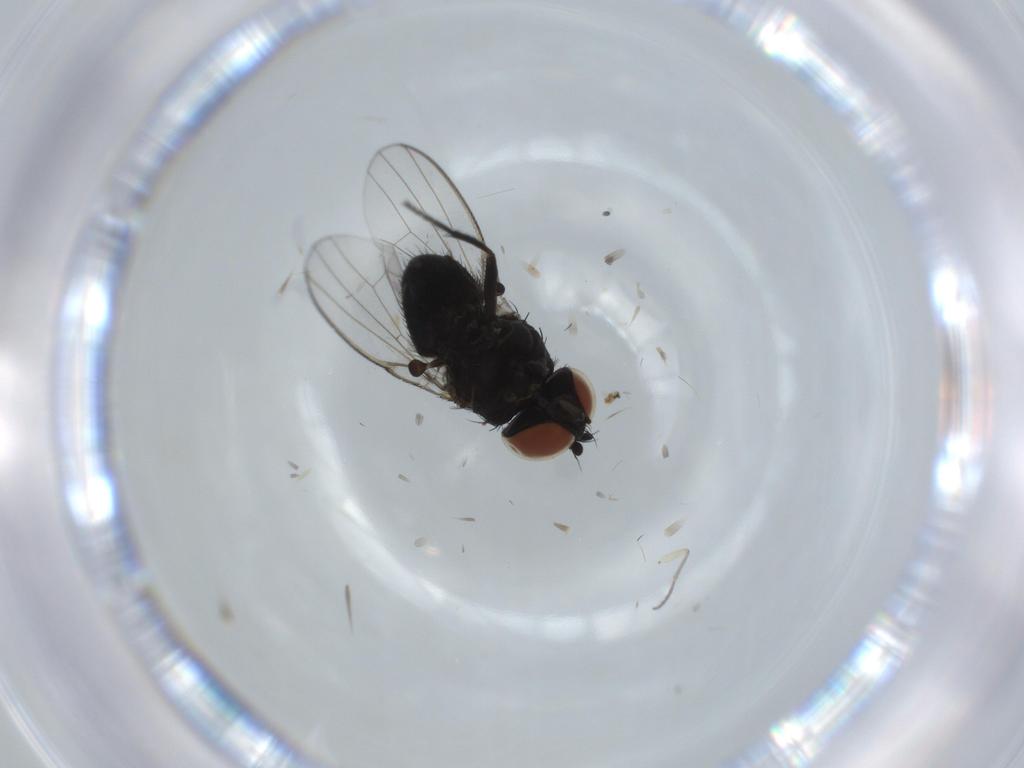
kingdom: Animalia
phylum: Arthropoda
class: Insecta
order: Diptera
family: Milichiidae
